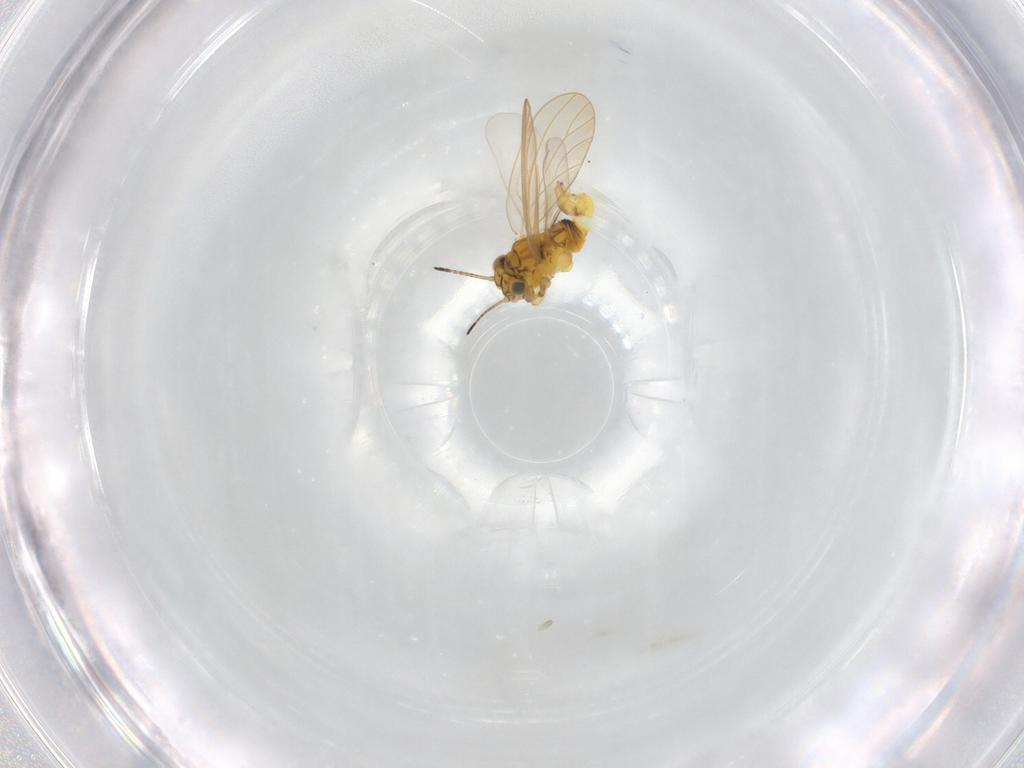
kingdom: Animalia
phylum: Arthropoda
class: Insecta
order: Hemiptera
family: Aphalaridae
